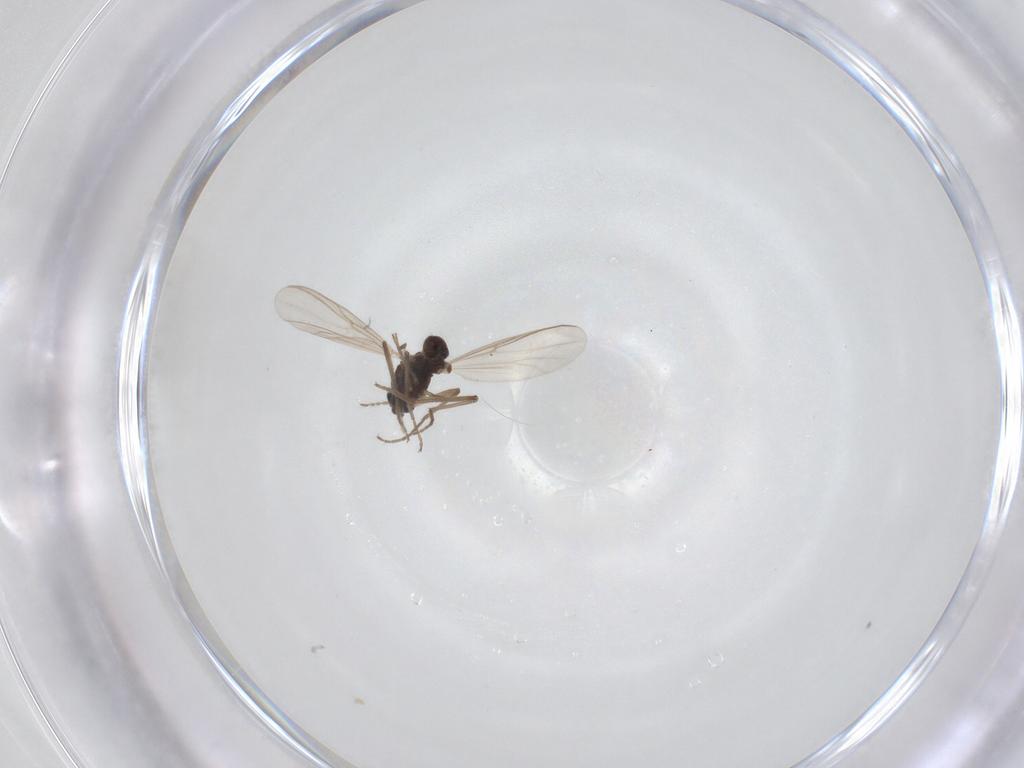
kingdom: Animalia
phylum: Arthropoda
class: Insecta
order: Diptera
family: Chironomidae
